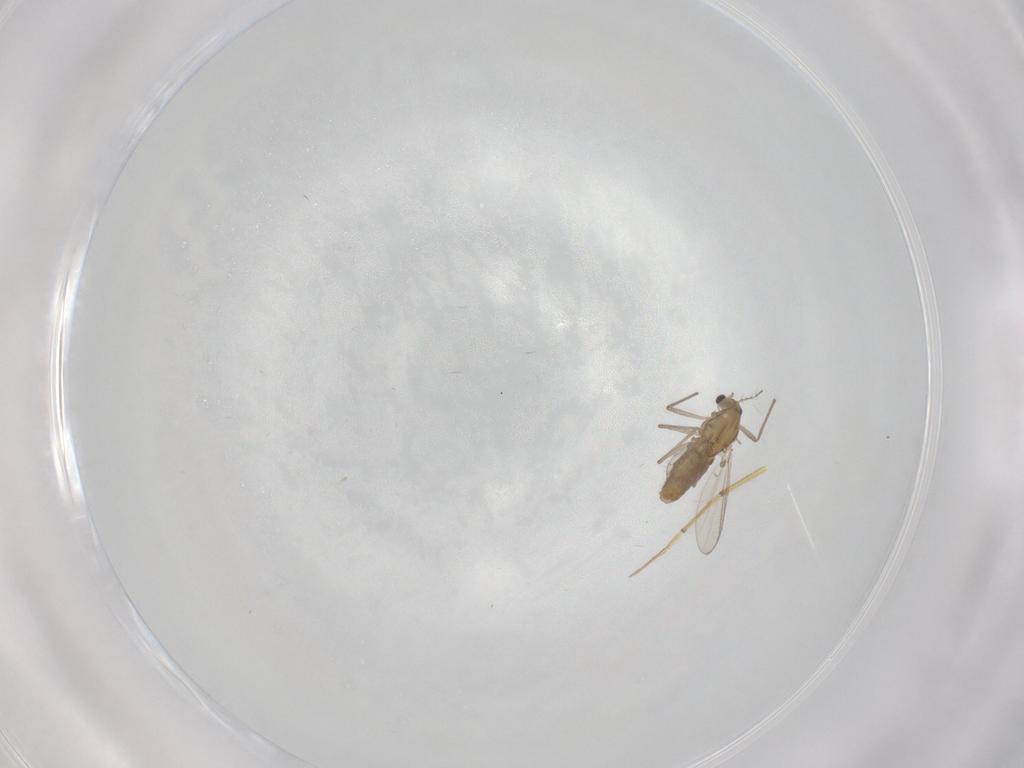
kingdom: Animalia
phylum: Arthropoda
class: Insecta
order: Diptera
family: Chironomidae
